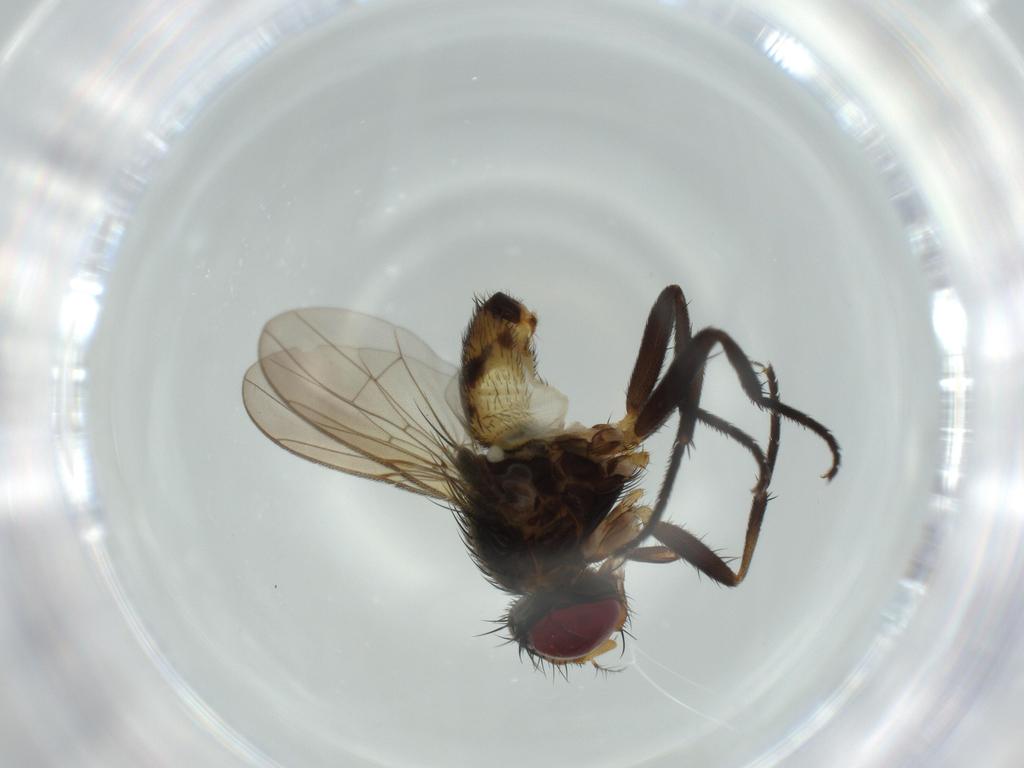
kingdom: Animalia
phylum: Arthropoda
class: Insecta
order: Diptera
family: Anthomyiidae
